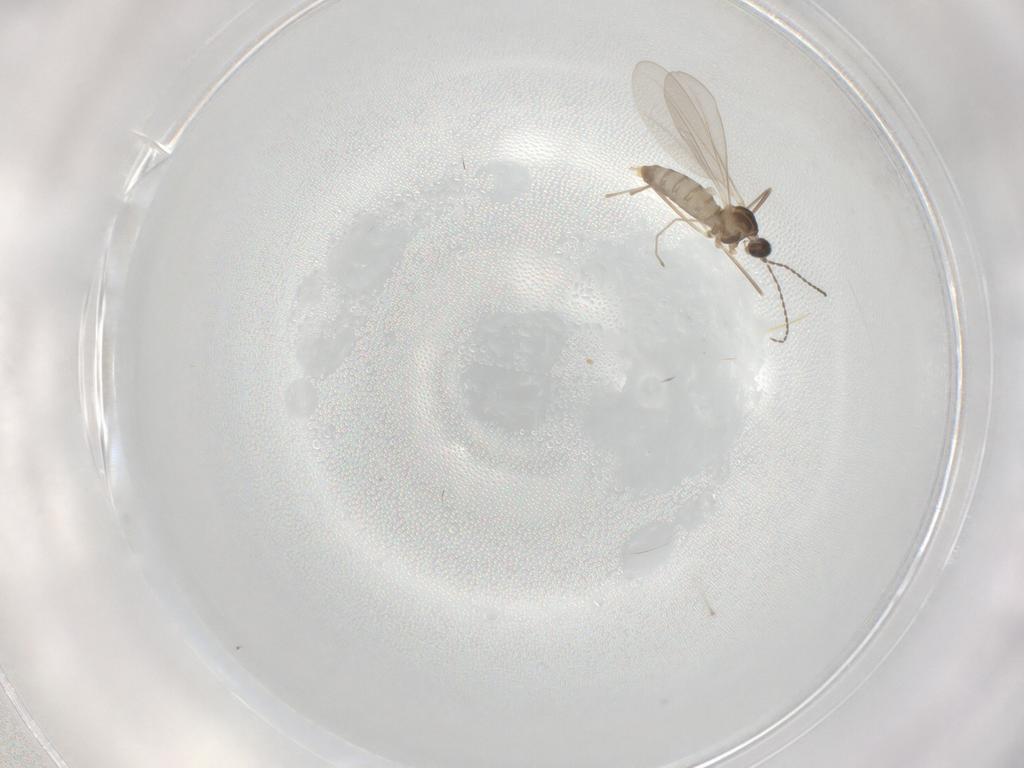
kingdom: Animalia
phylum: Arthropoda
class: Insecta
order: Diptera
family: Cecidomyiidae
